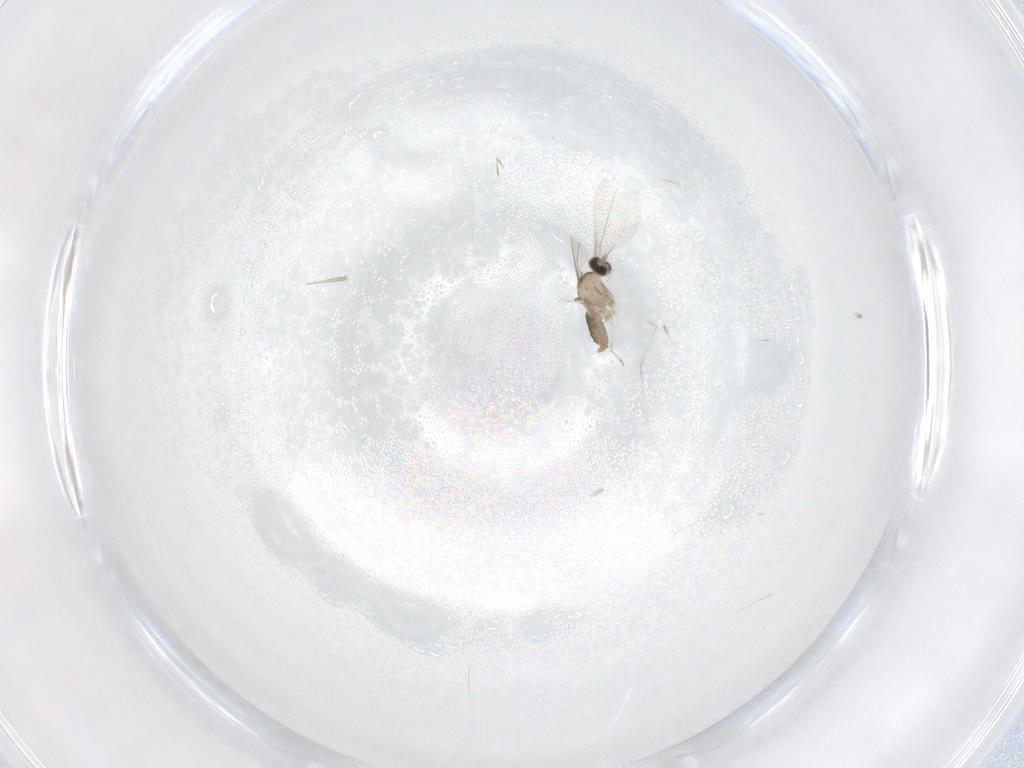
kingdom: Animalia
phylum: Arthropoda
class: Insecta
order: Diptera
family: Cecidomyiidae
